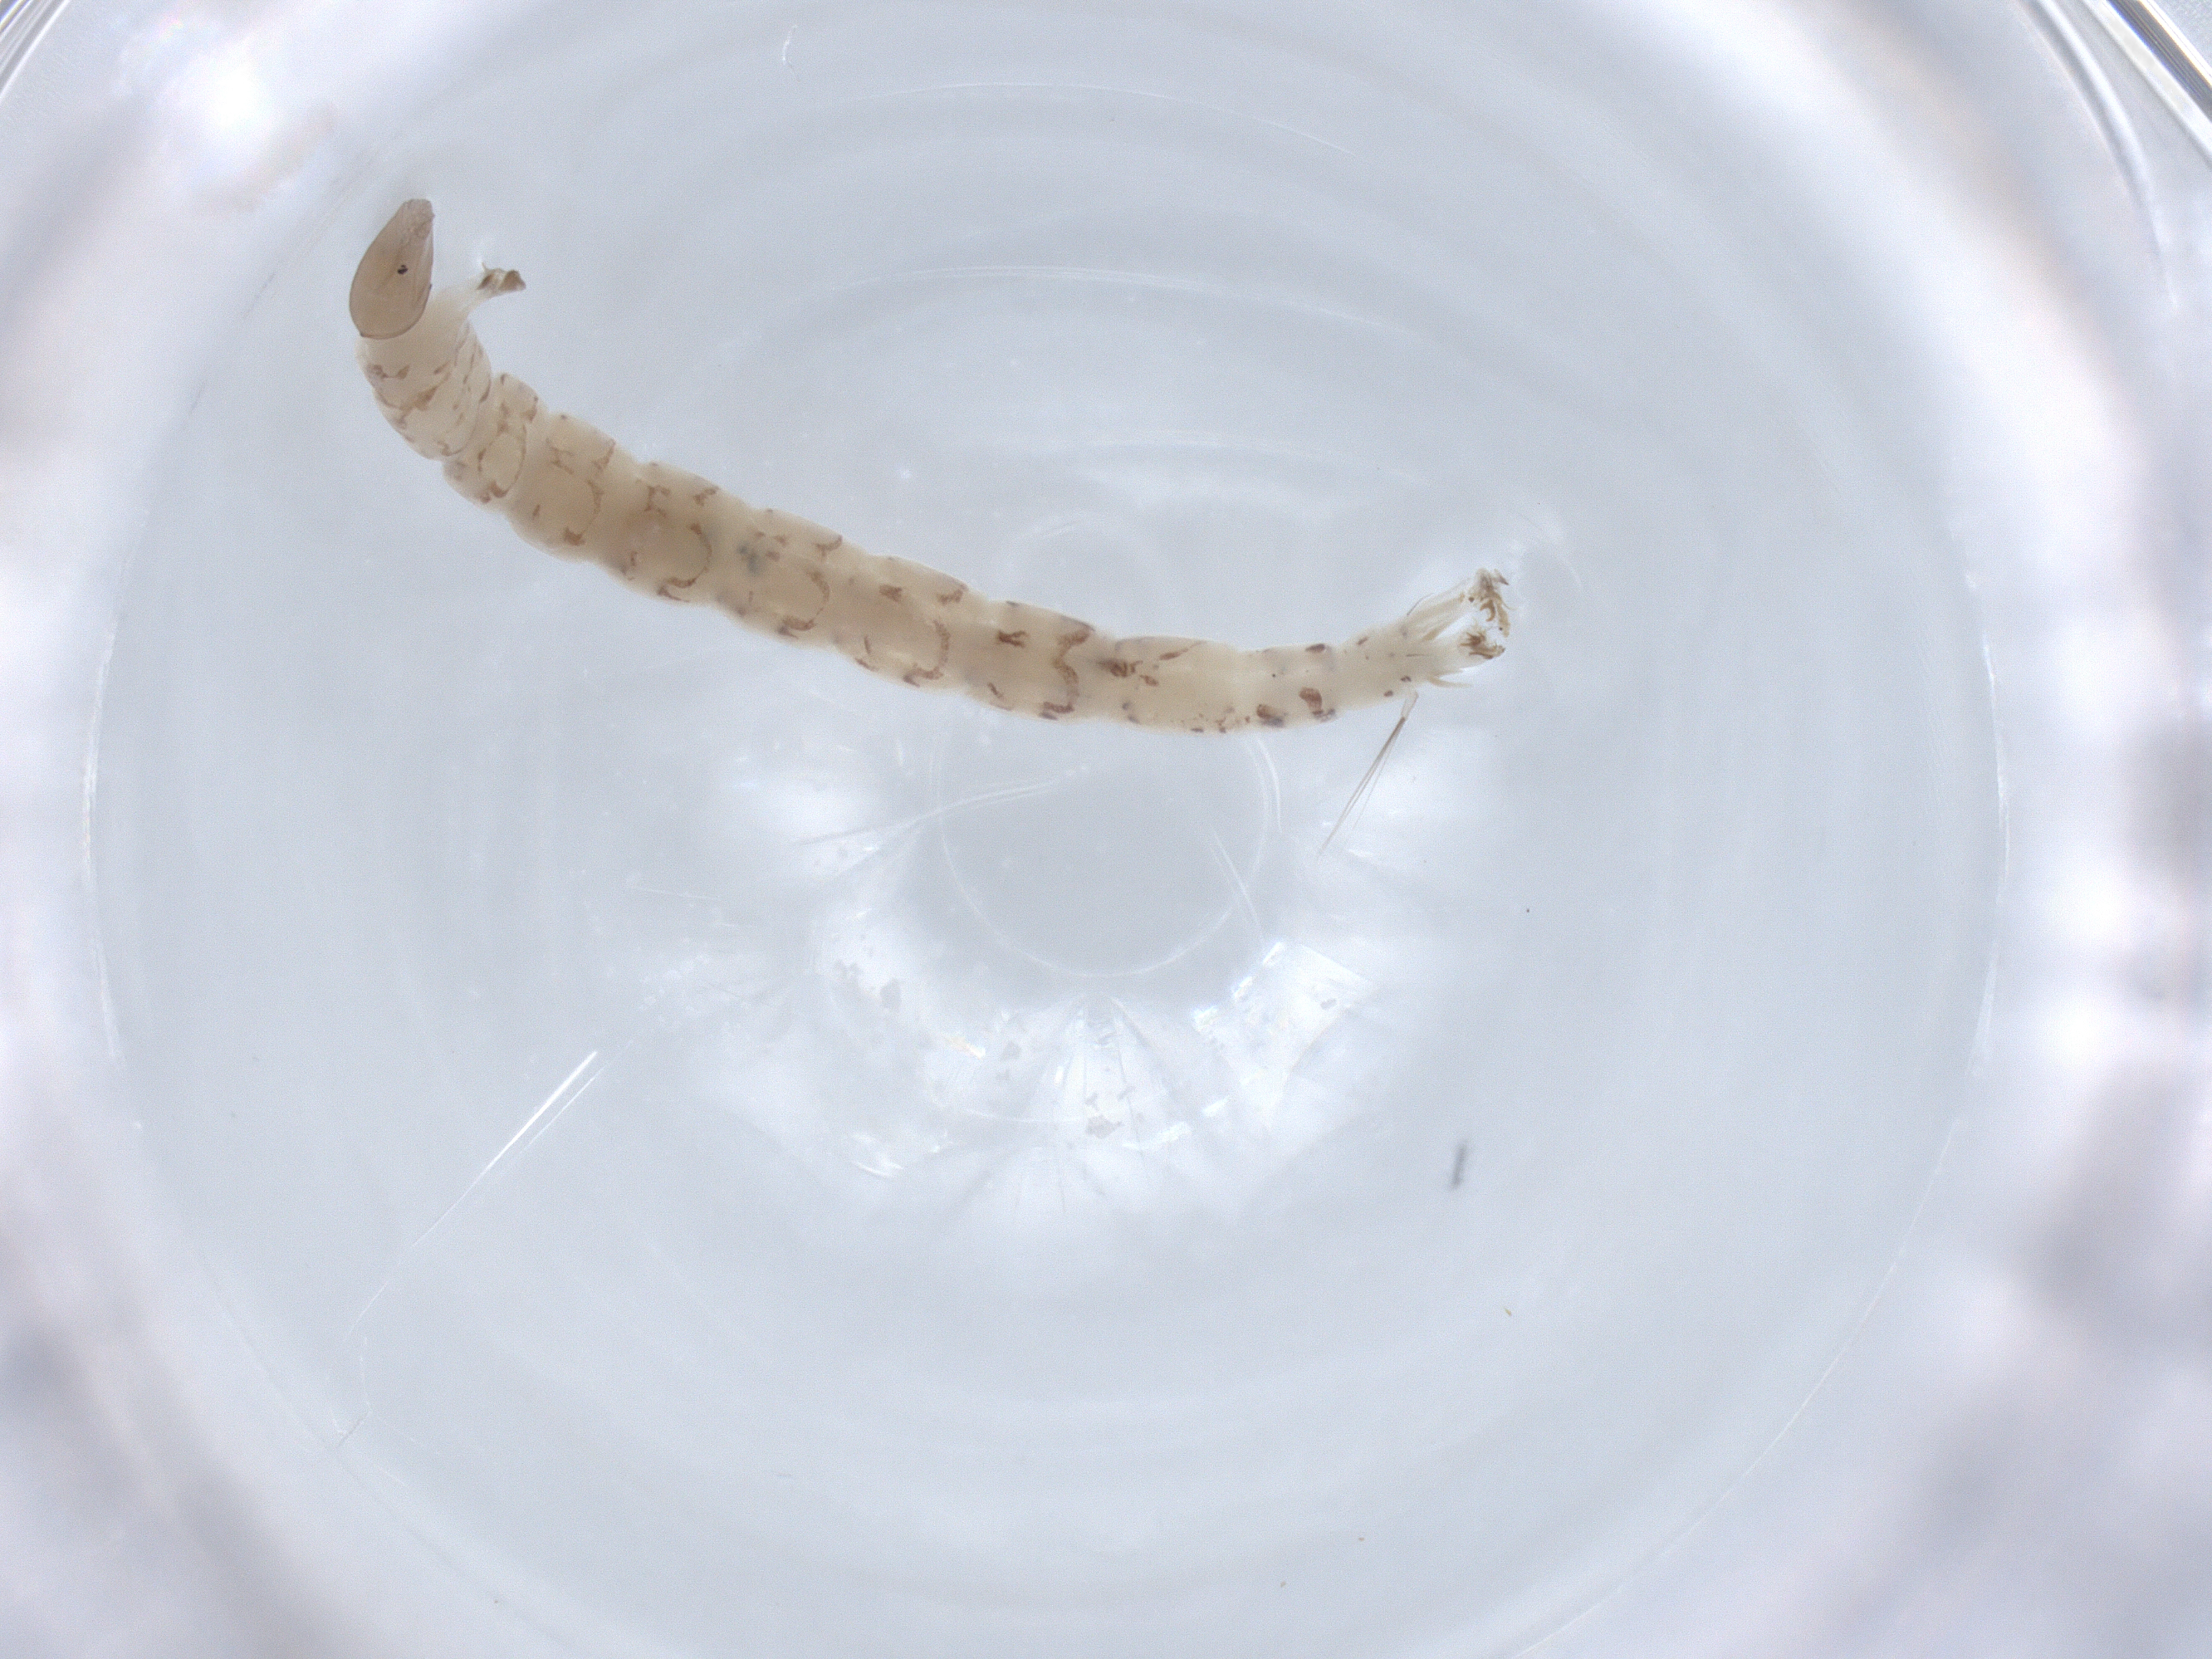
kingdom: Animalia
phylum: Arthropoda
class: Insecta
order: Diptera
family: Chironomidae
